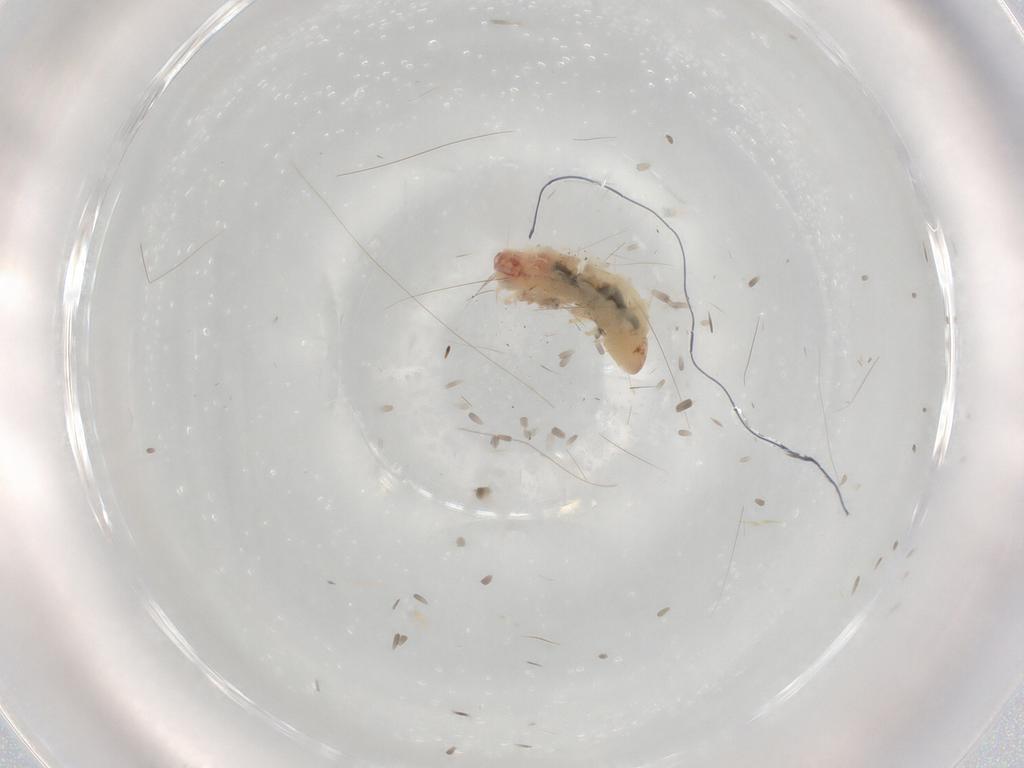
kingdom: Animalia
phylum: Arthropoda
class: Diplopoda
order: Polyxenida
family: Polyxenidae
